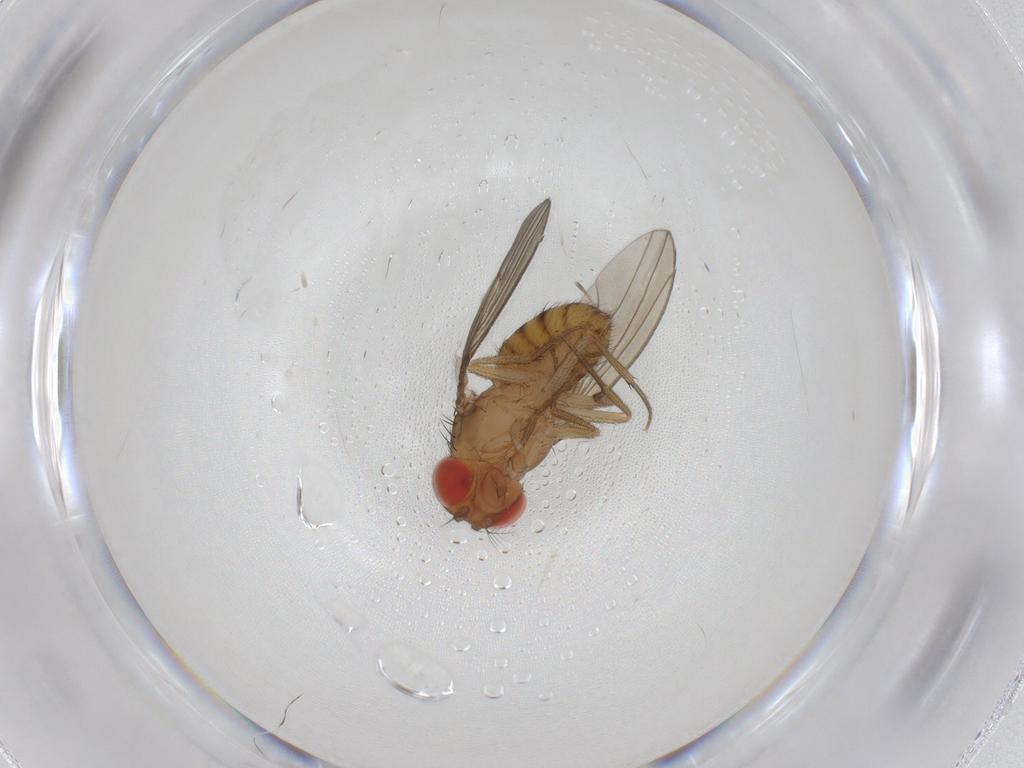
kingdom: Animalia
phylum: Arthropoda
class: Insecta
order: Diptera
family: Drosophilidae
